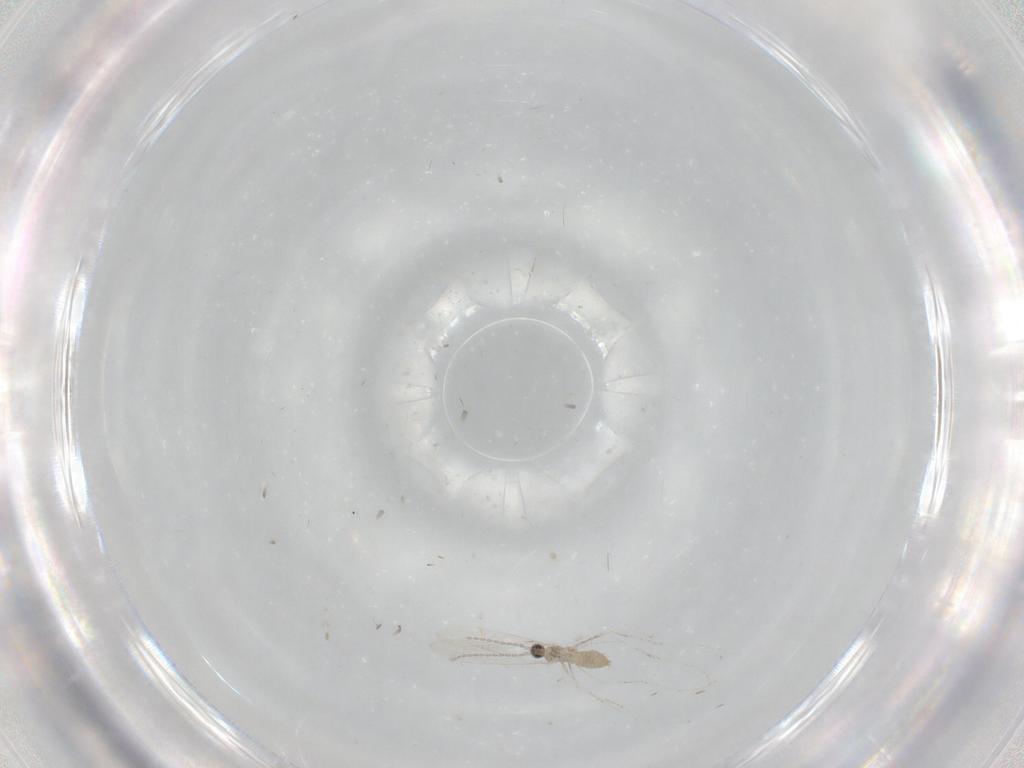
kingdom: Animalia
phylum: Arthropoda
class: Insecta
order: Diptera
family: Cecidomyiidae
